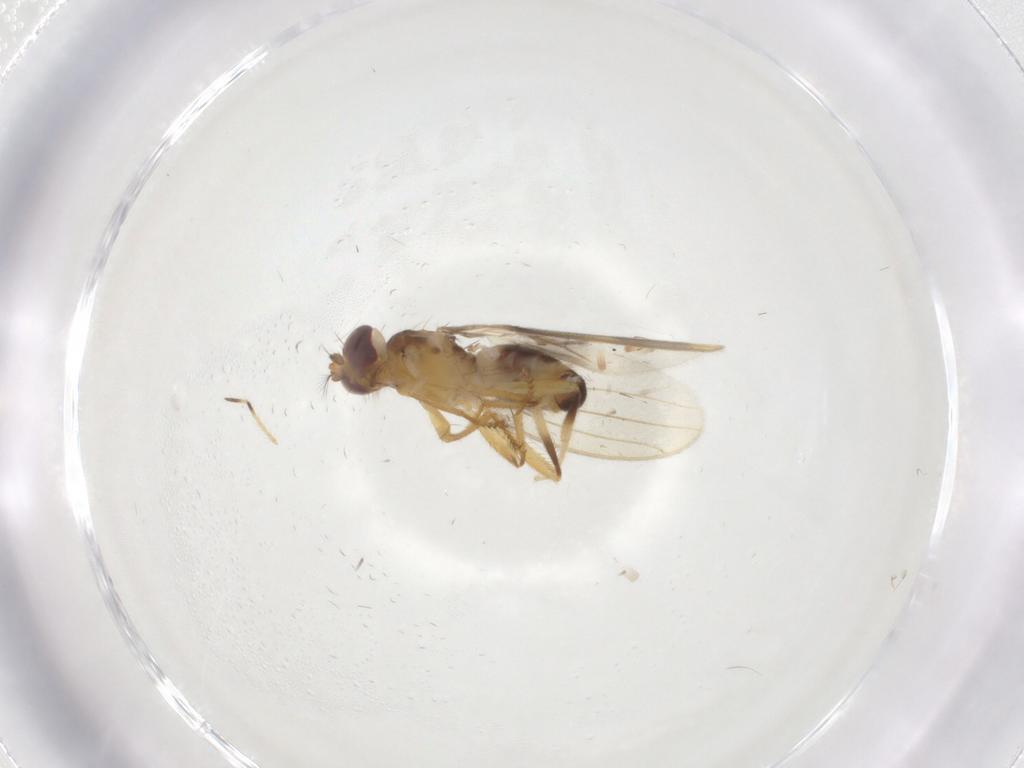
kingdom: Animalia
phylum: Arthropoda
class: Insecta
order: Diptera
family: Periscelididae
